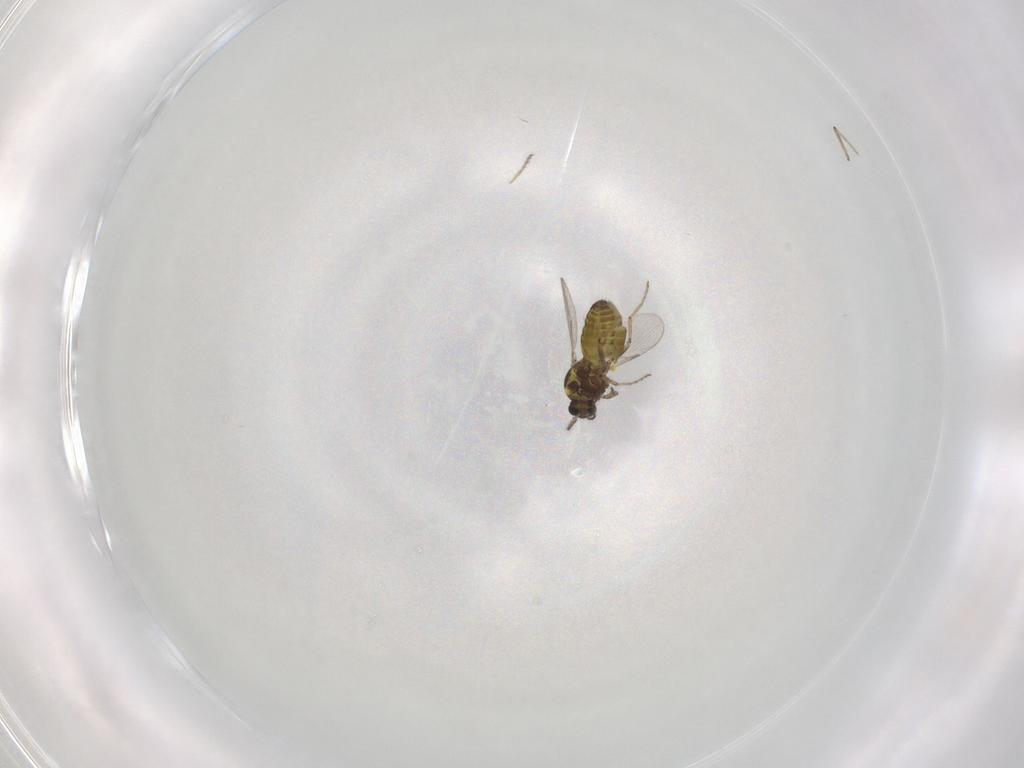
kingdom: Animalia
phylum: Arthropoda
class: Insecta
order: Diptera
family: Ceratopogonidae
